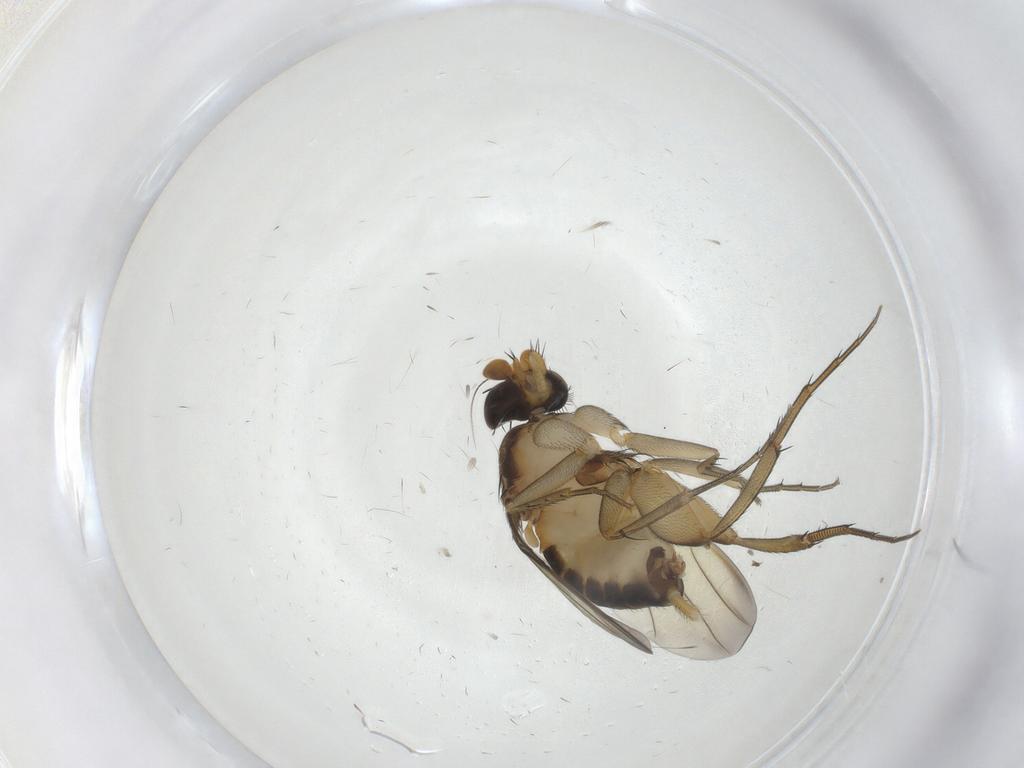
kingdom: Animalia
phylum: Arthropoda
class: Insecta
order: Diptera
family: Phoridae
